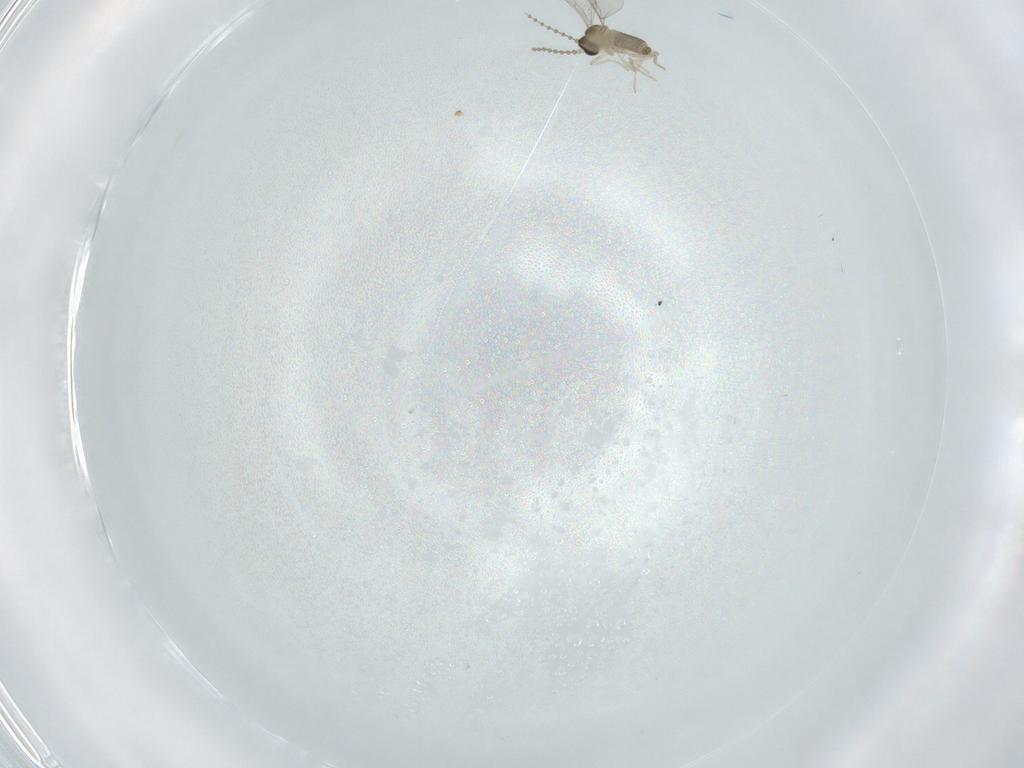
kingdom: Animalia
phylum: Arthropoda
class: Insecta
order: Diptera
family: Cecidomyiidae
